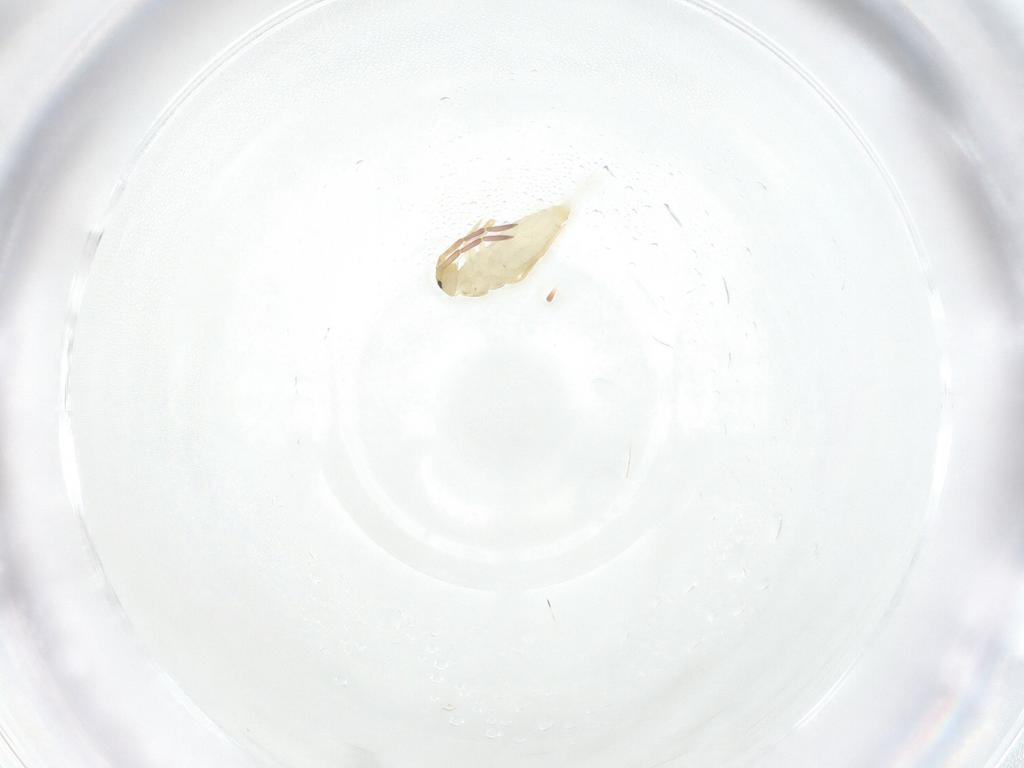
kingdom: Animalia
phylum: Arthropoda
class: Collembola
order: Entomobryomorpha
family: Entomobryidae
